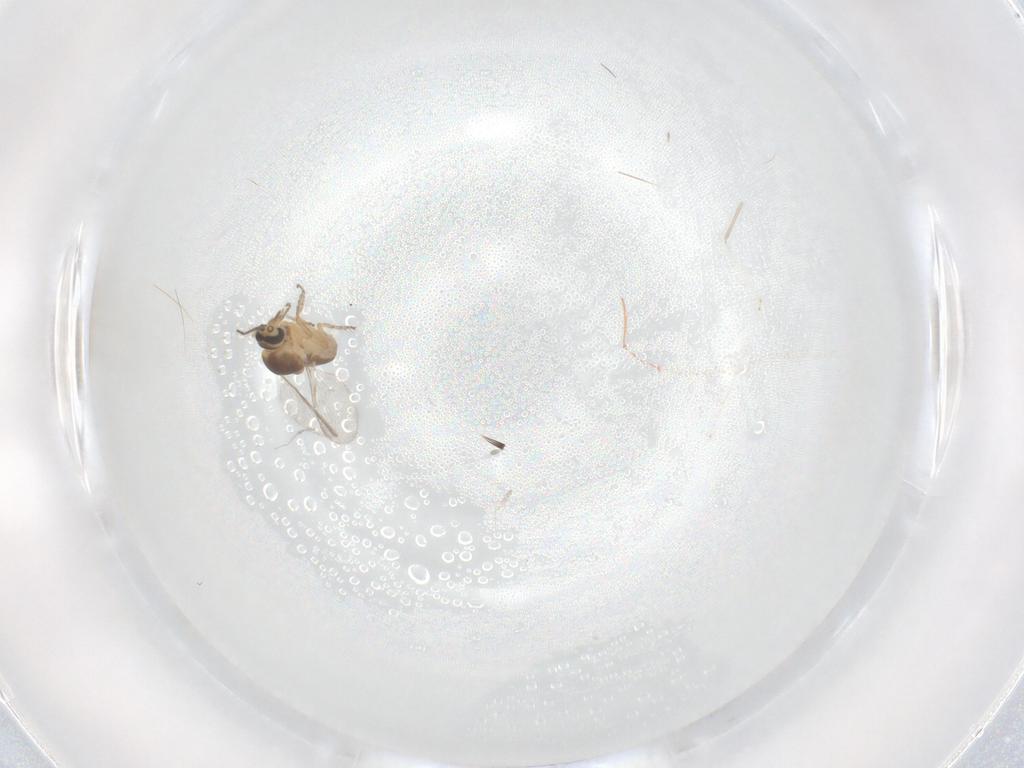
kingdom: Animalia
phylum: Arthropoda
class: Insecta
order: Diptera
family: Ceratopogonidae
